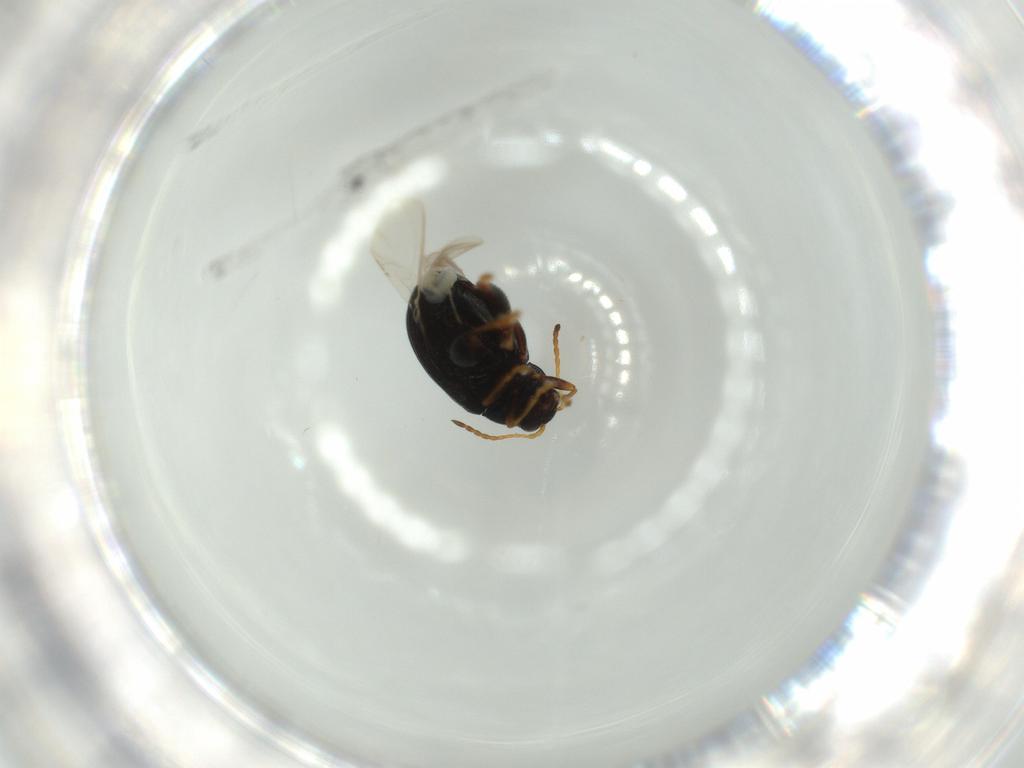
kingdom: Animalia
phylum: Arthropoda
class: Insecta
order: Coleoptera
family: Chrysomelidae
